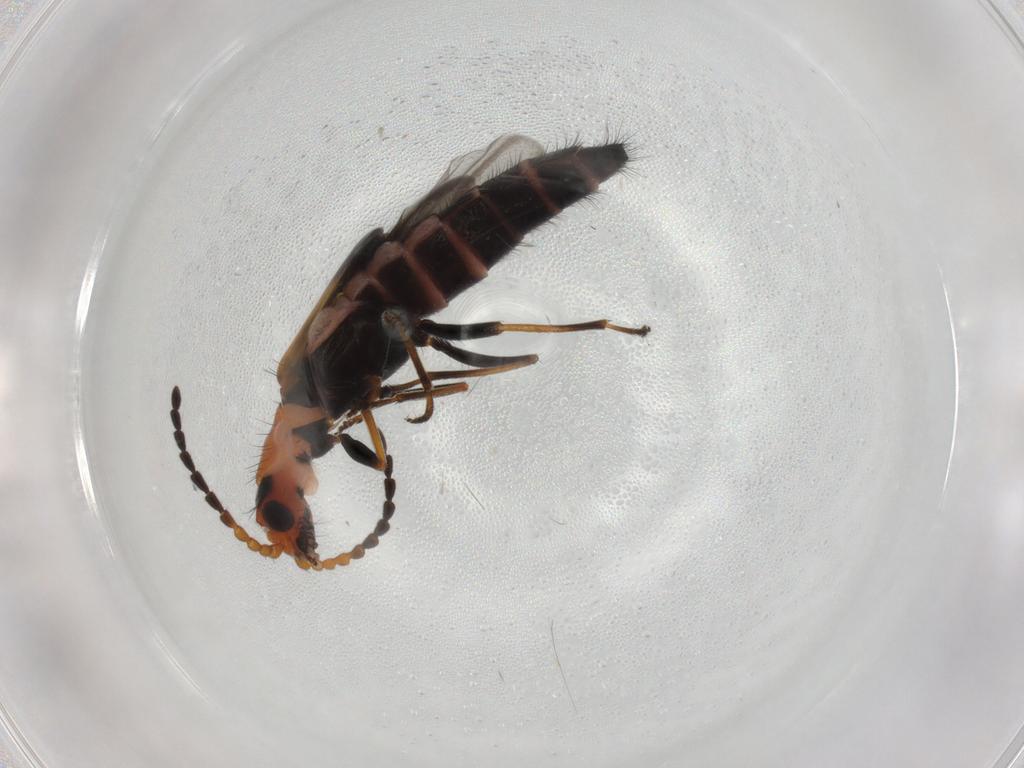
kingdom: Animalia
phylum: Arthropoda
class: Insecta
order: Coleoptera
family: Melyridae
